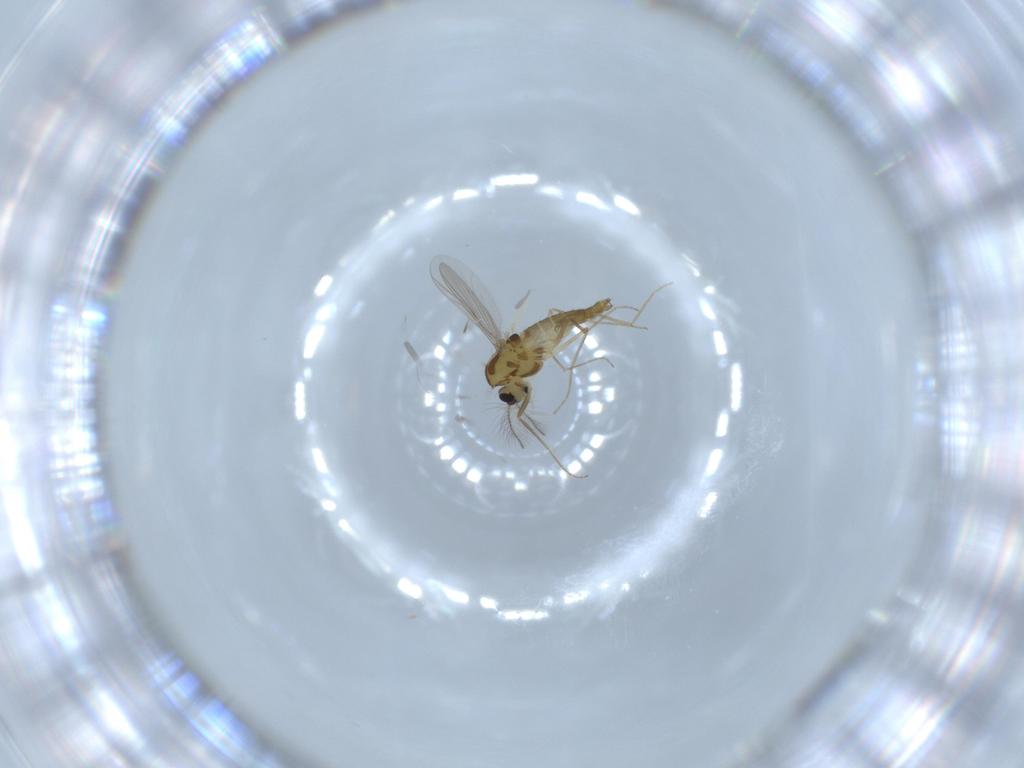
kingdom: Animalia
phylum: Arthropoda
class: Insecta
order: Diptera
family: Chironomidae
